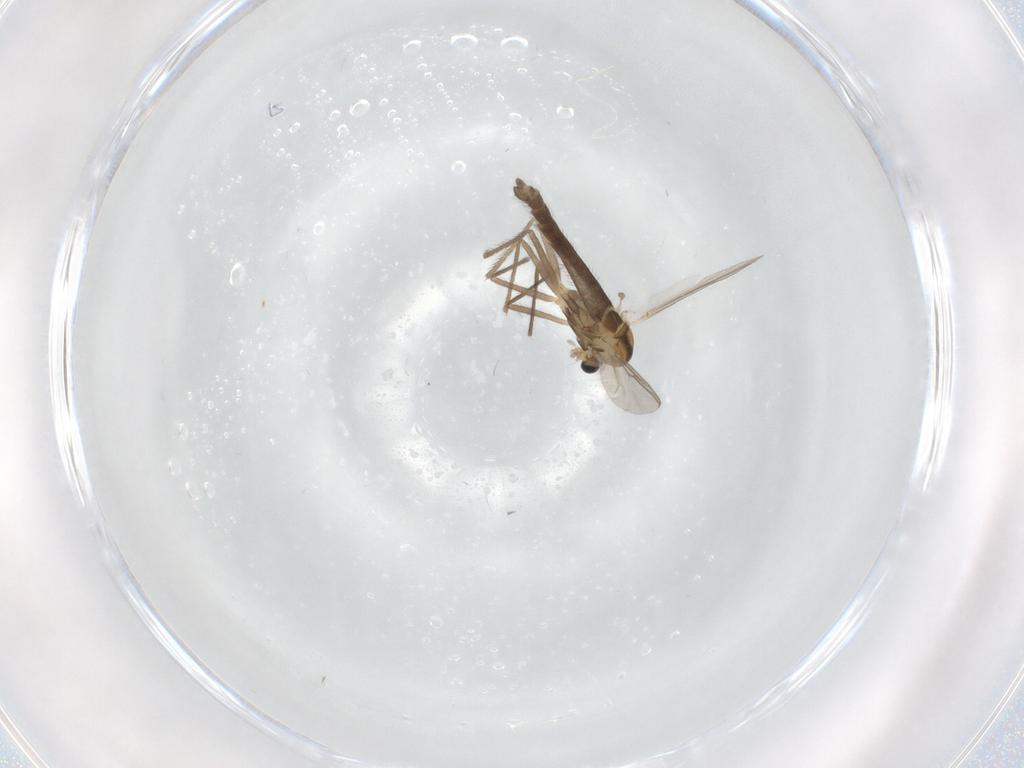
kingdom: Animalia
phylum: Arthropoda
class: Insecta
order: Diptera
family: Chironomidae
